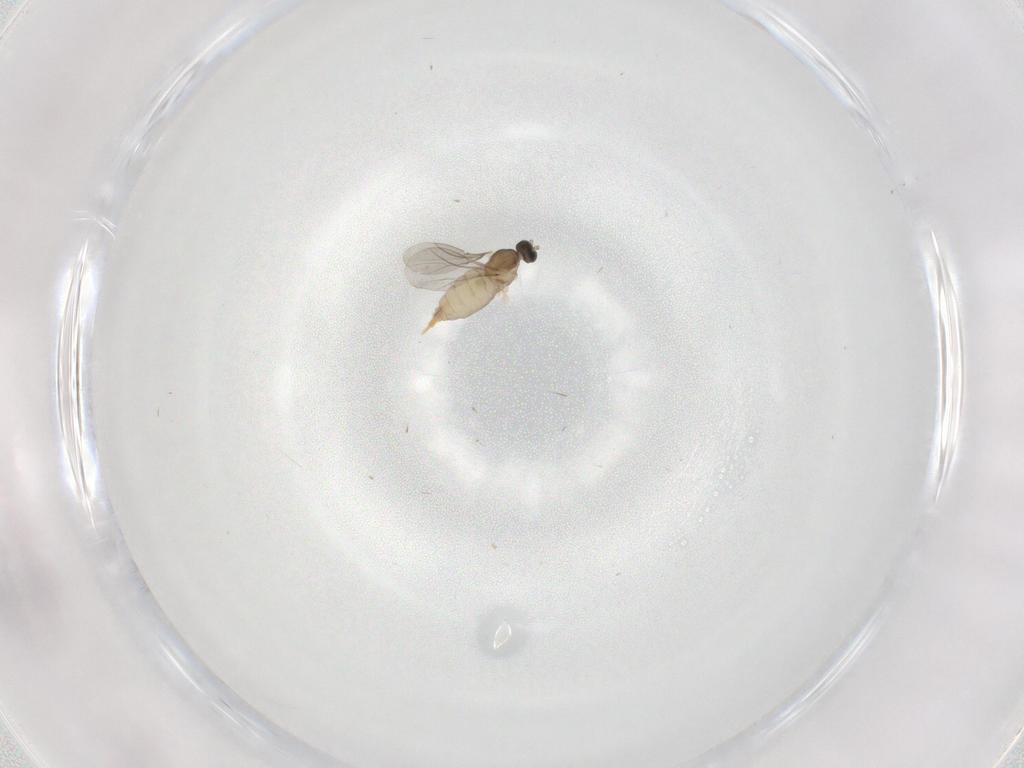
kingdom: Animalia
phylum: Arthropoda
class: Insecta
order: Diptera
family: Cecidomyiidae
